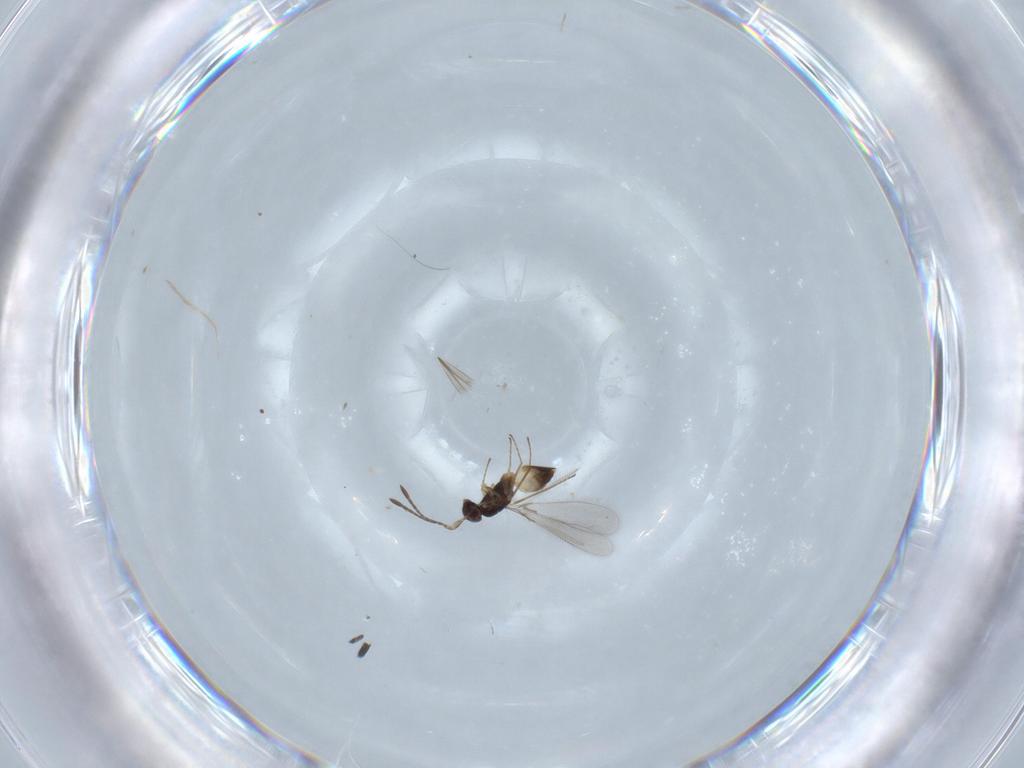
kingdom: Animalia
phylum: Arthropoda
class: Insecta
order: Hymenoptera
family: Mymaridae
